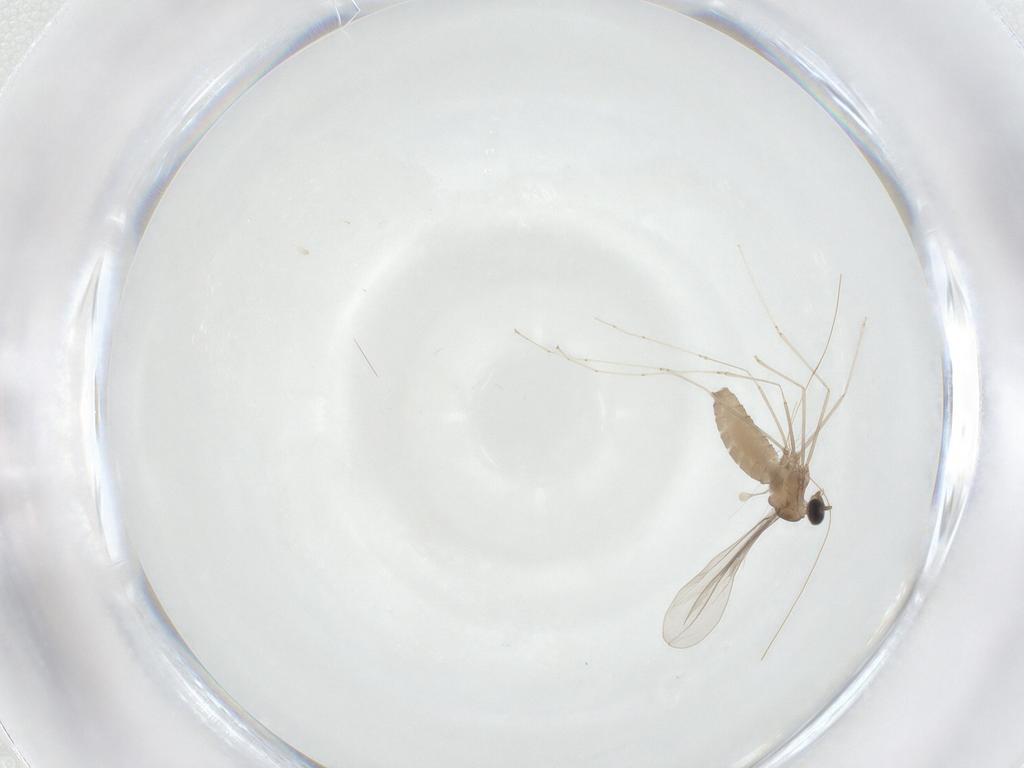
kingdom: Animalia
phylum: Arthropoda
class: Insecta
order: Diptera
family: Cecidomyiidae
